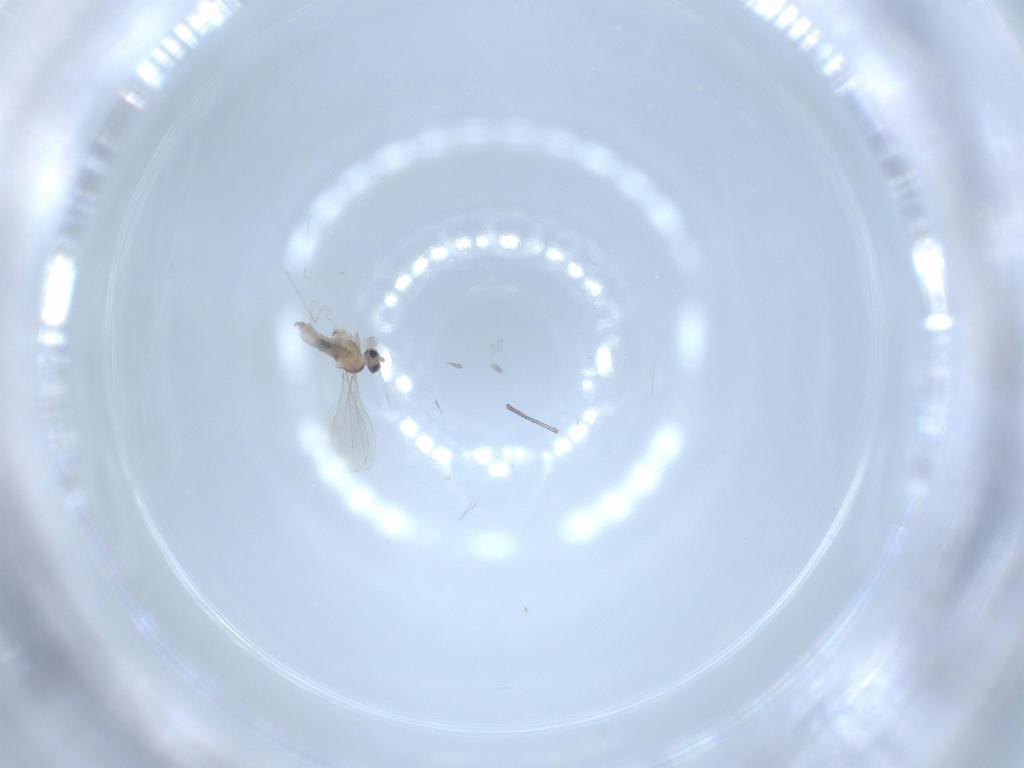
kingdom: Animalia
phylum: Arthropoda
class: Insecta
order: Diptera
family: Cecidomyiidae
